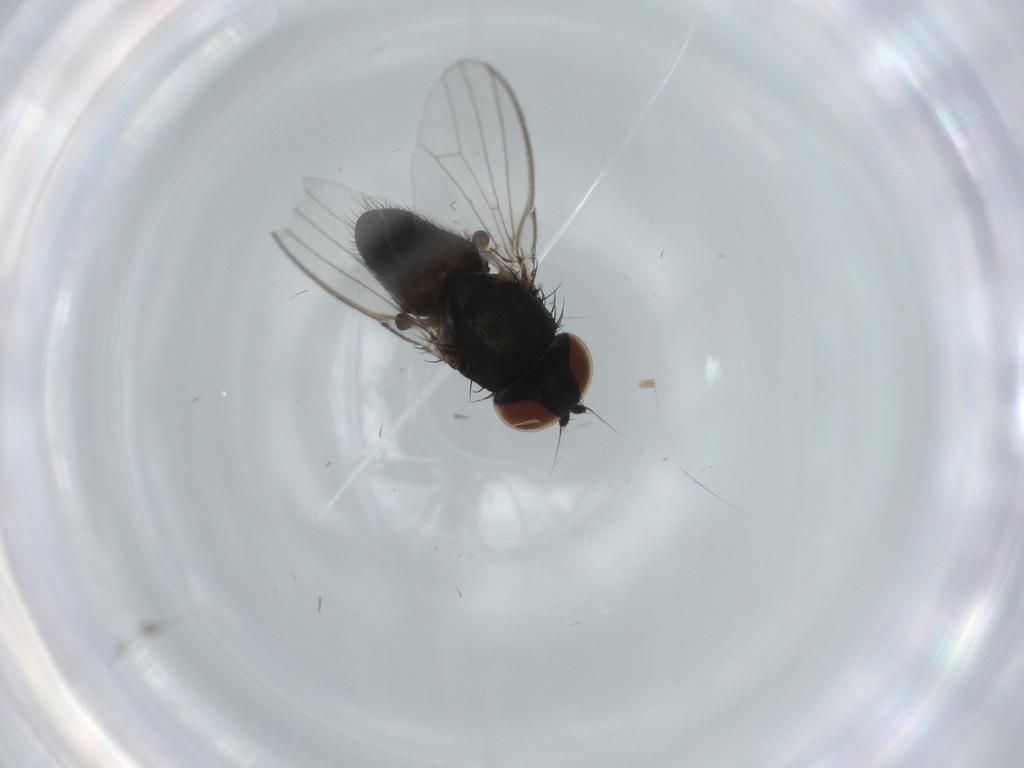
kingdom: Animalia
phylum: Arthropoda
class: Insecta
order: Diptera
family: Milichiidae
